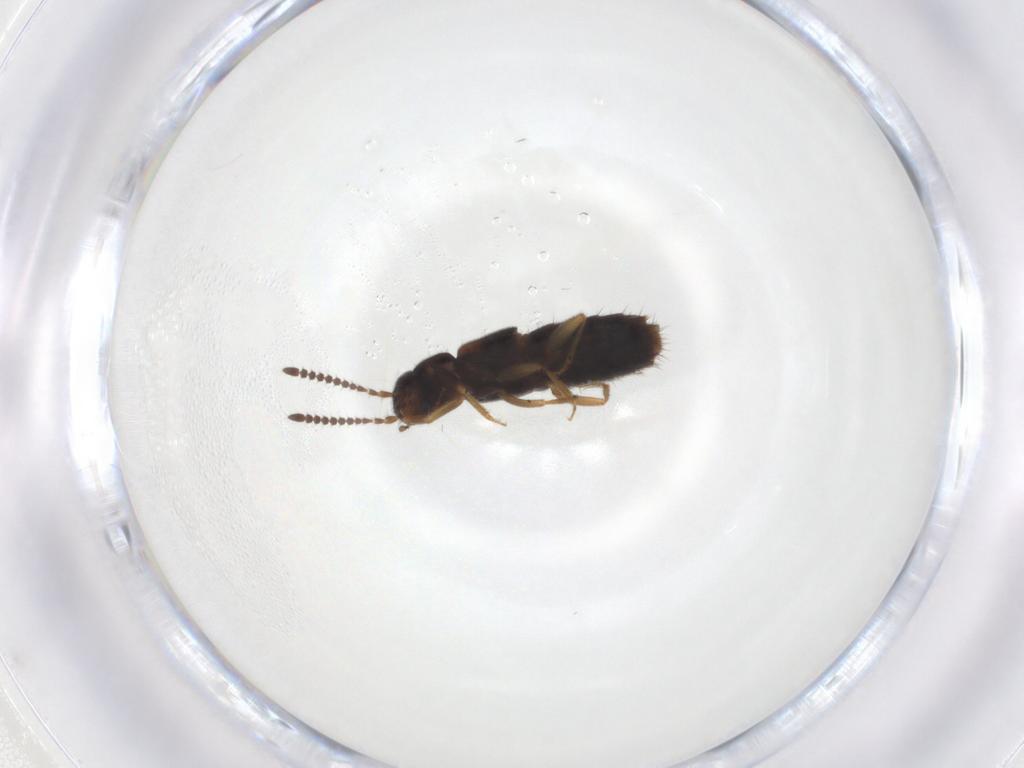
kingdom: Animalia
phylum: Arthropoda
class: Insecta
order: Coleoptera
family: Staphylinidae
